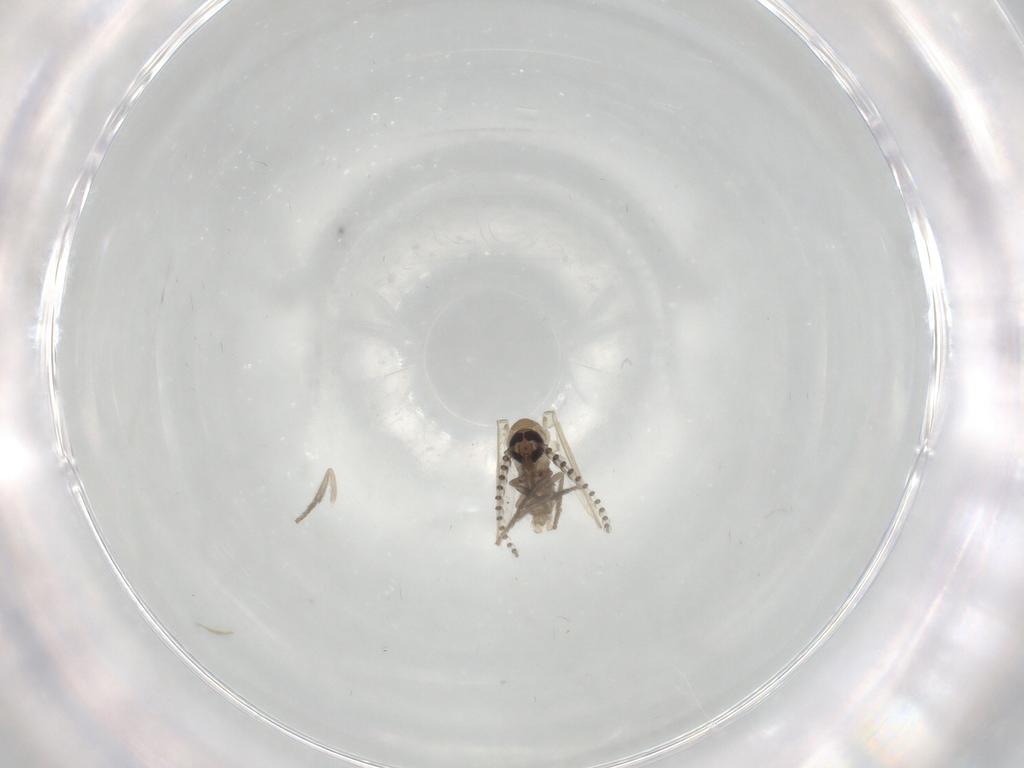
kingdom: Animalia
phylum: Arthropoda
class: Insecta
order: Diptera
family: Psychodidae
